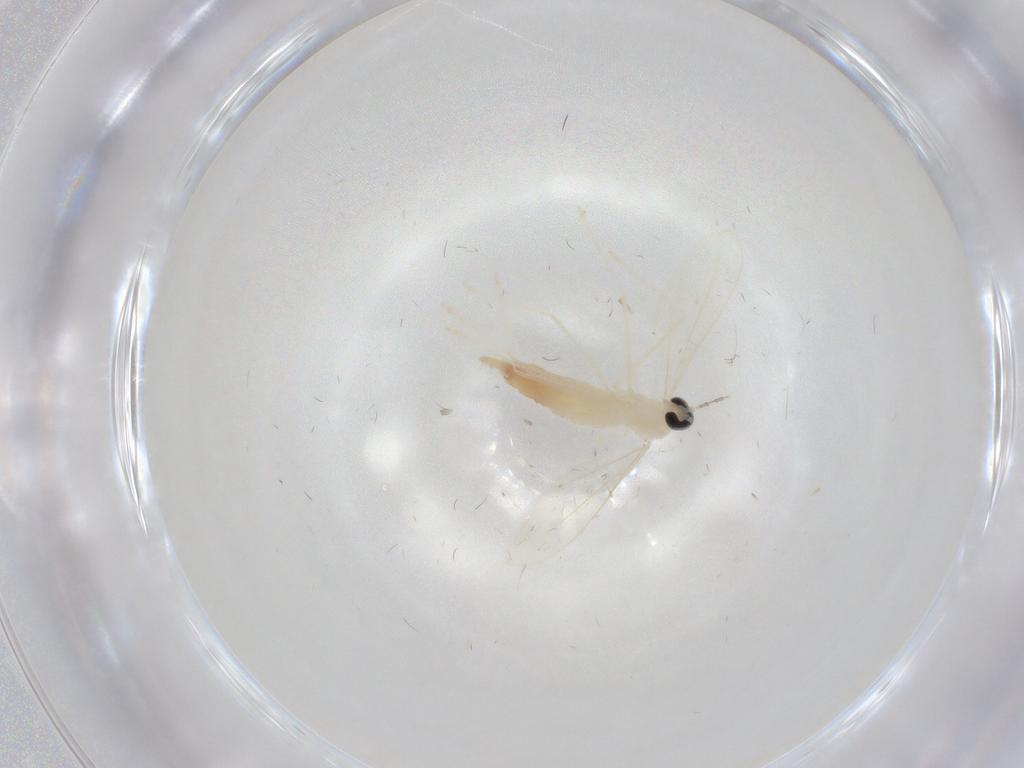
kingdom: Animalia
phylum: Arthropoda
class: Insecta
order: Diptera
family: Cecidomyiidae
